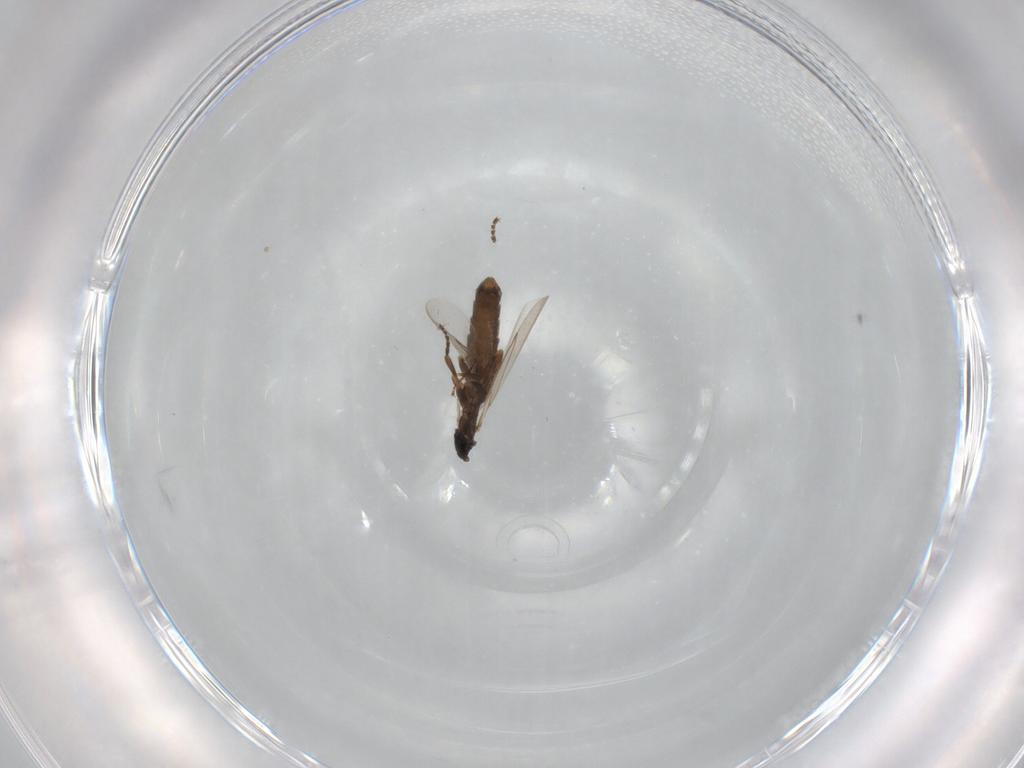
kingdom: Animalia
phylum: Arthropoda
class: Insecta
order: Diptera
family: Scatopsidae
